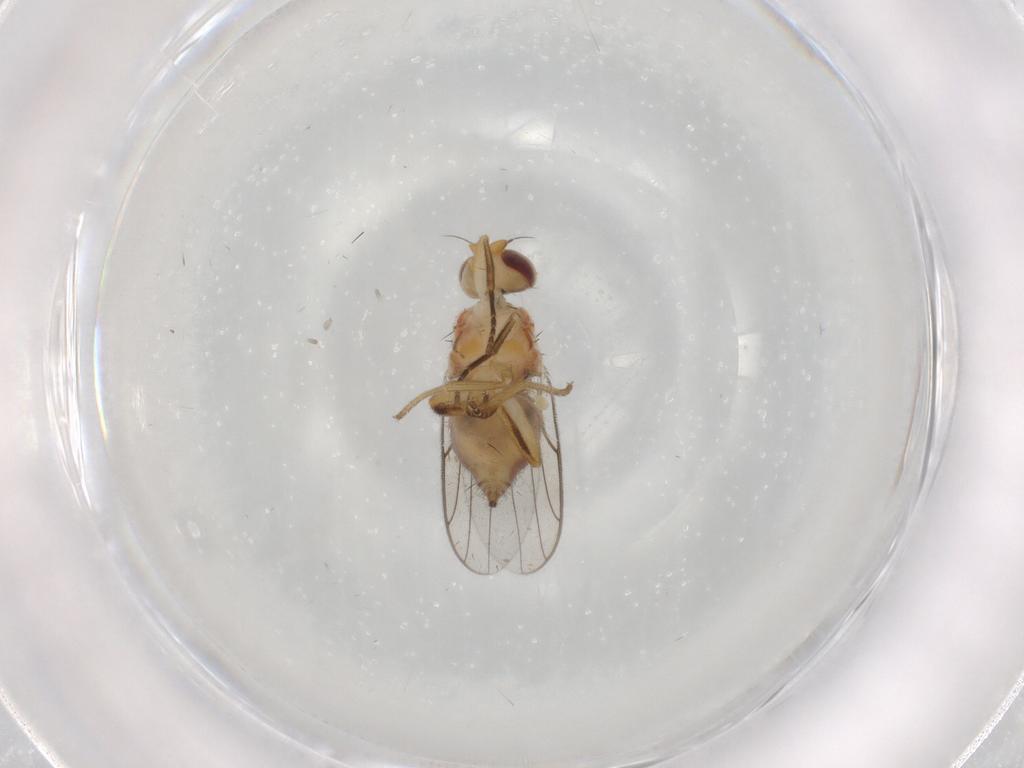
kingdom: Animalia
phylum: Arthropoda
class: Insecta
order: Diptera
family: Chloropidae
